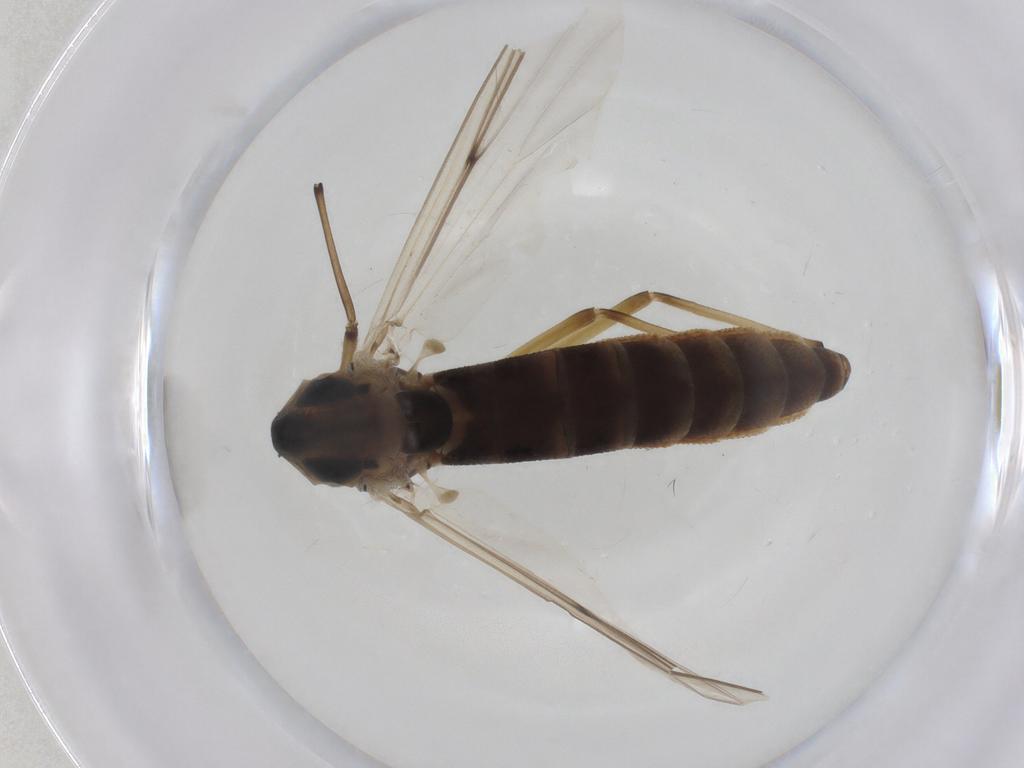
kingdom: Animalia
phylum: Arthropoda
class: Insecta
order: Diptera
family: Chironomidae
